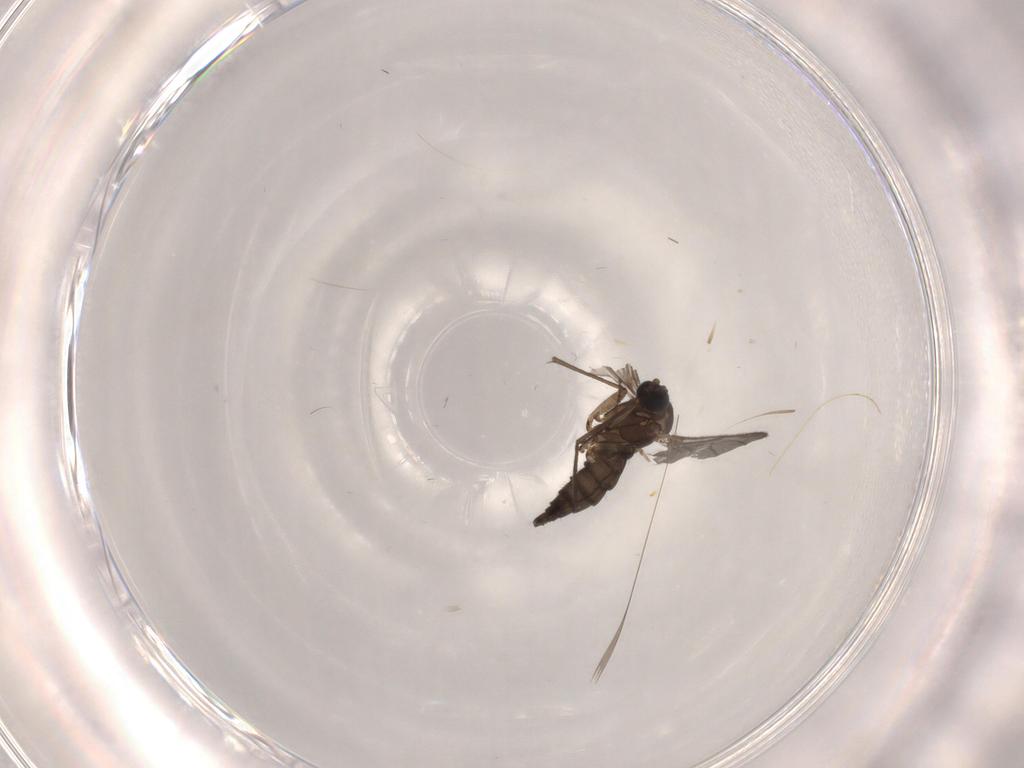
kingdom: Animalia
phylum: Arthropoda
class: Insecta
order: Diptera
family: Sciaridae
